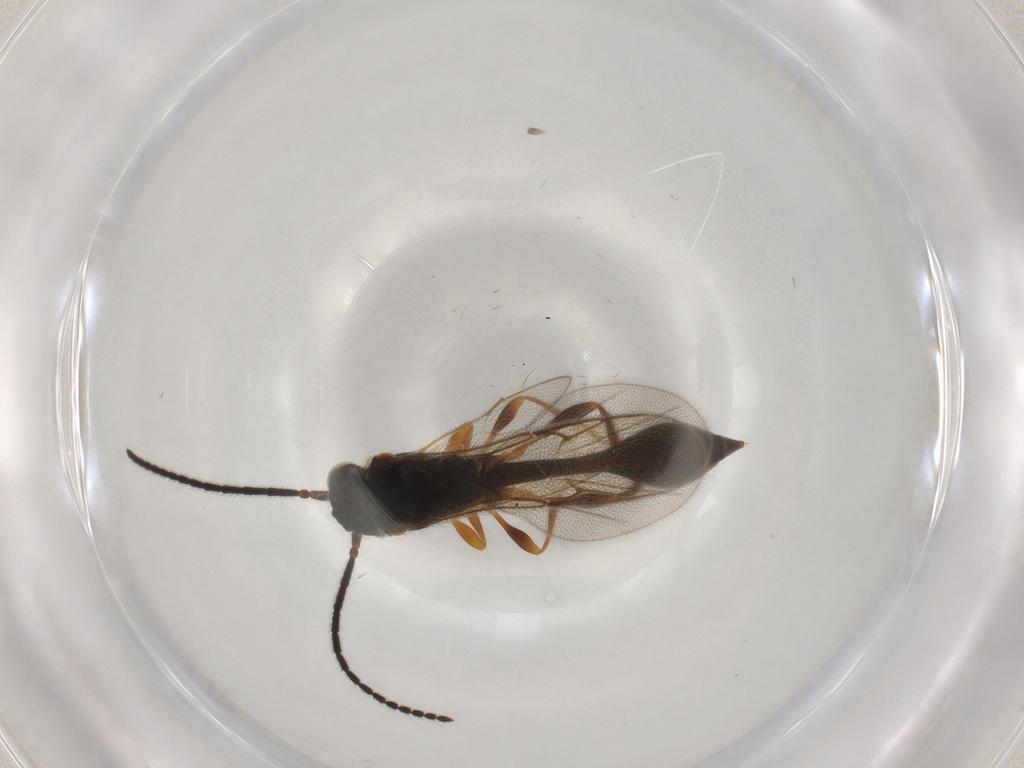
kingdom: Animalia
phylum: Arthropoda
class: Insecta
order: Hymenoptera
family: Diapriidae
